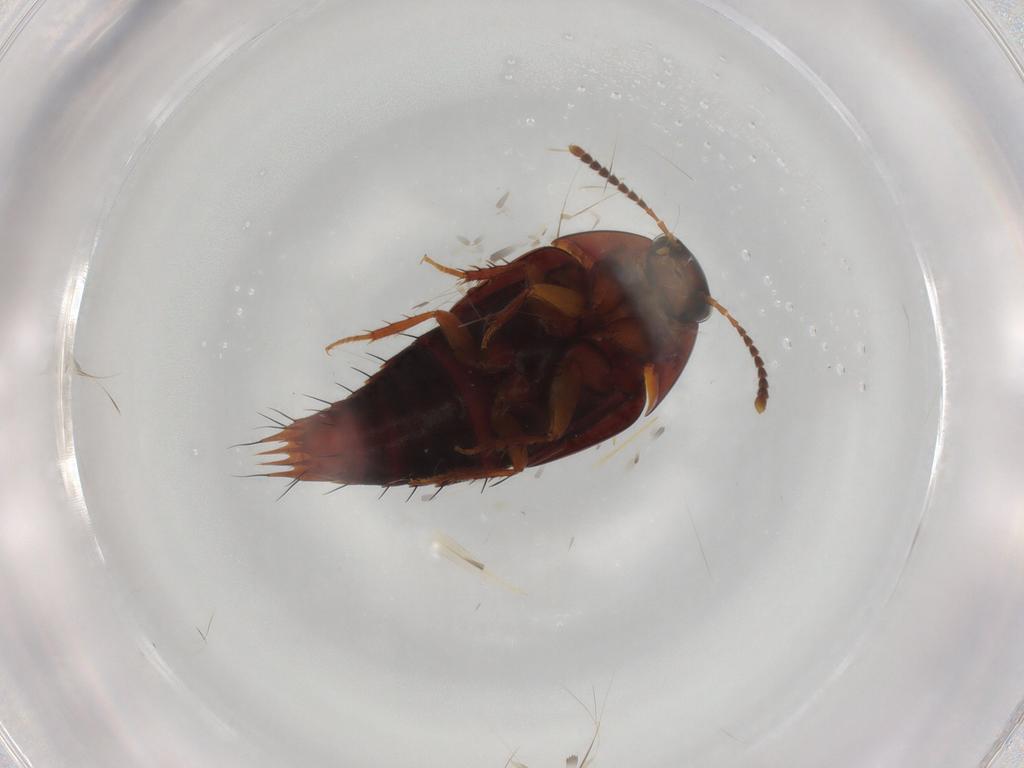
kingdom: Animalia
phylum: Arthropoda
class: Insecta
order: Coleoptera
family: Staphylinidae
